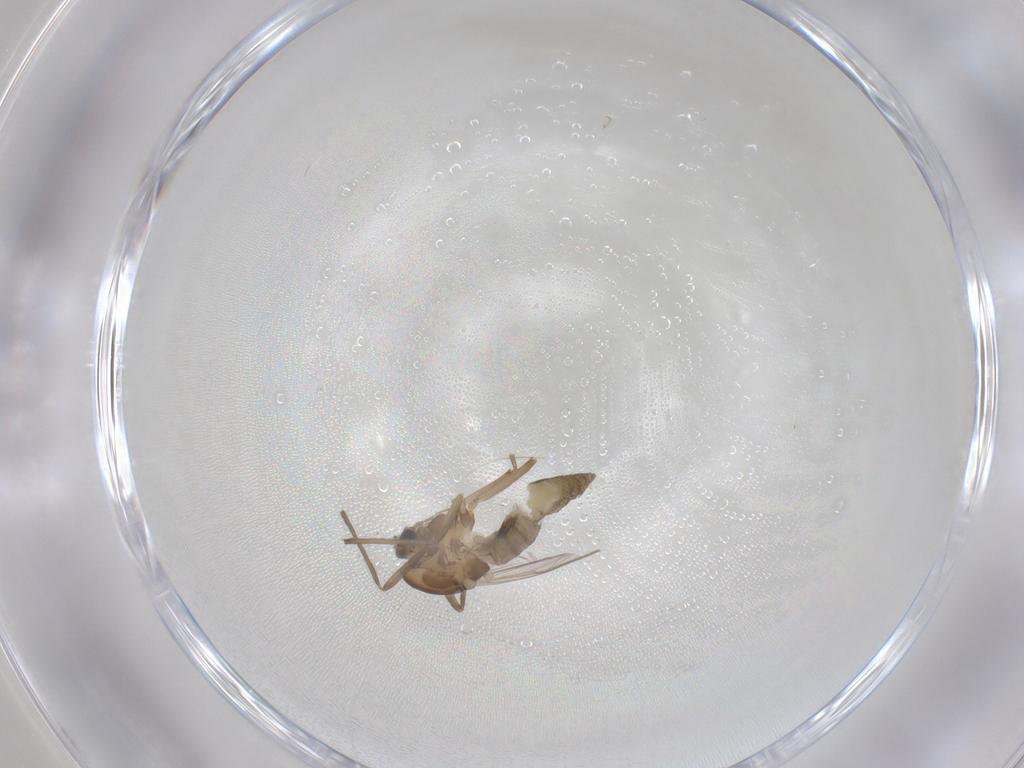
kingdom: Animalia
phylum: Arthropoda
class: Insecta
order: Diptera
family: Chironomidae
